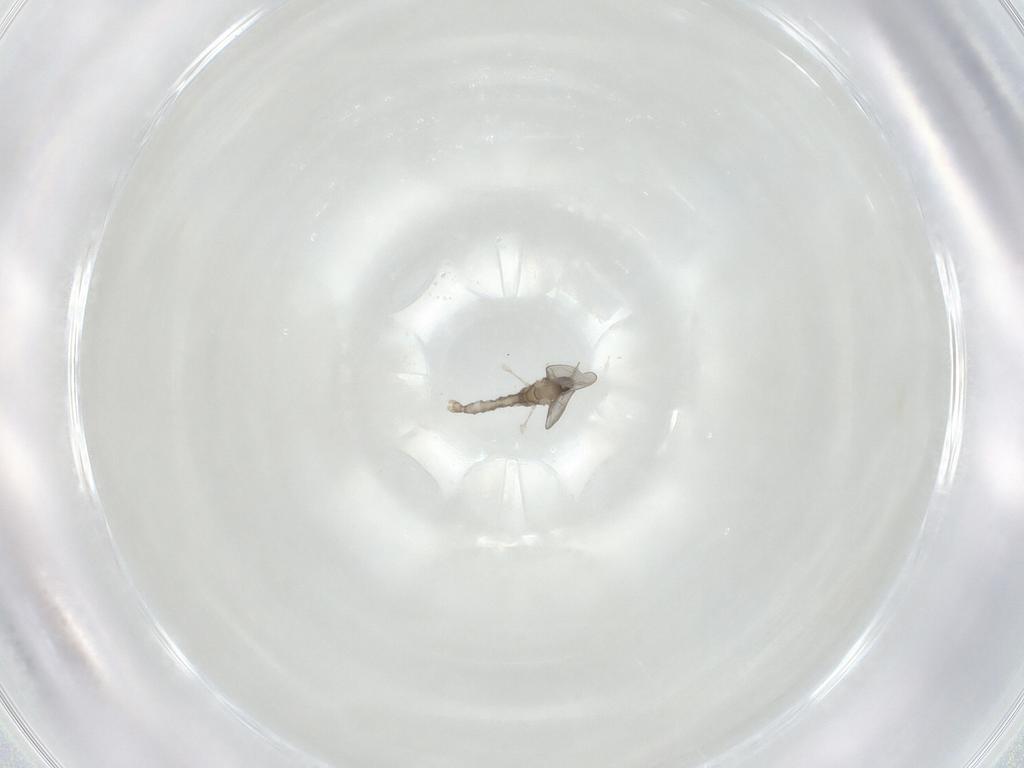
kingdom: Animalia
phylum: Arthropoda
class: Insecta
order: Diptera
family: Cecidomyiidae
